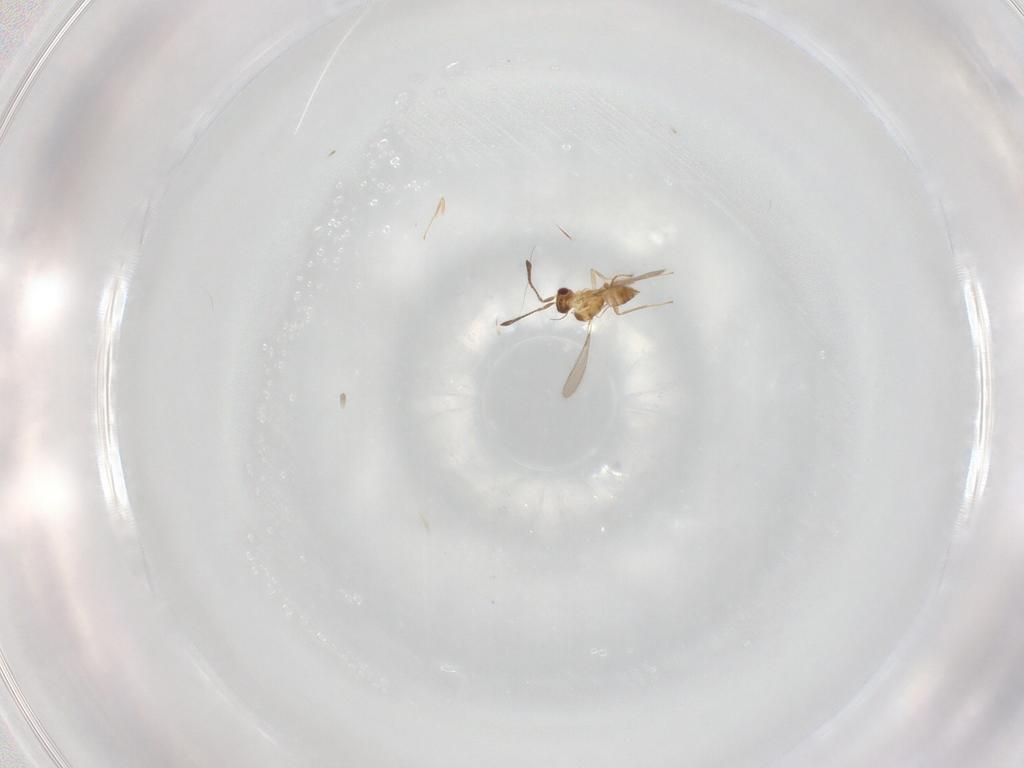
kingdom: Animalia
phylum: Arthropoda
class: Insecta
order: Hymenoptera
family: Mymaridae
